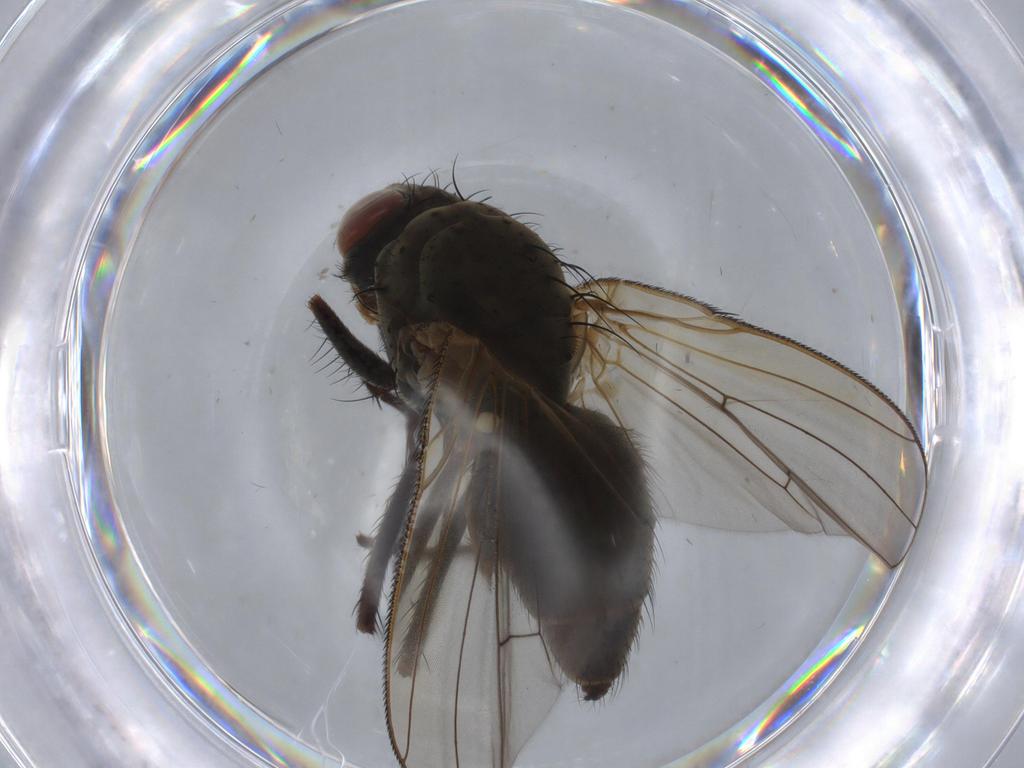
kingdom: Animalia
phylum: Arthropoda
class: Insecta
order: Diptera
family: Anthomyiidae
